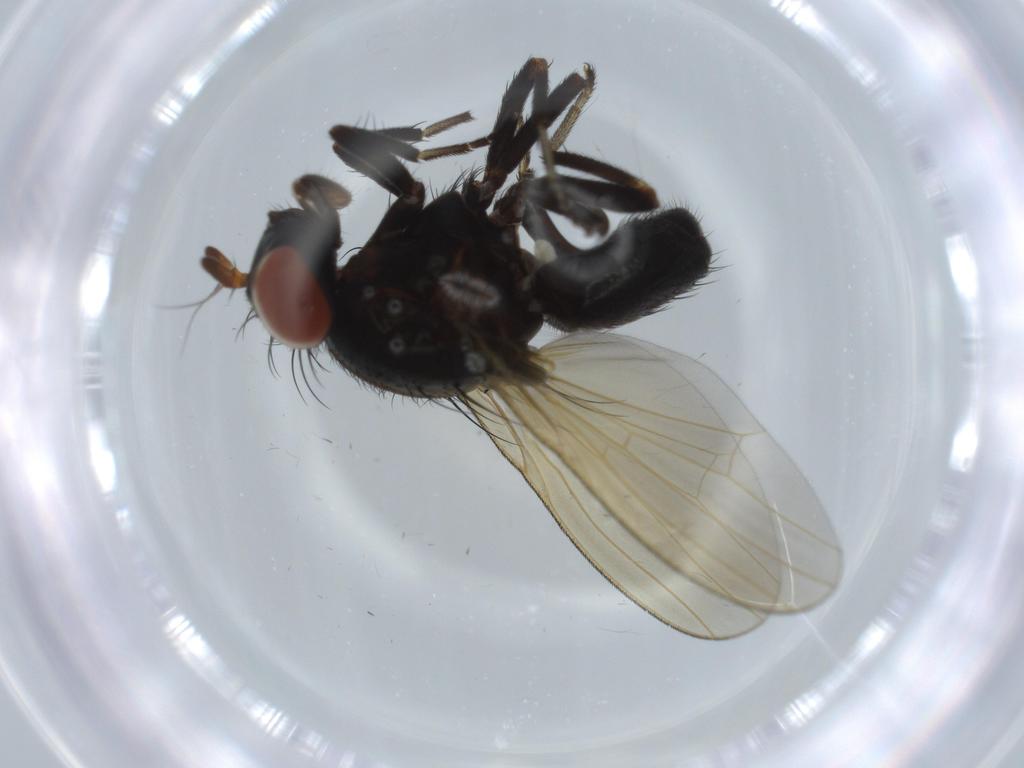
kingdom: Animalia
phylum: Arthropoda
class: Insecta
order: Diptera
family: Lauxaniidae
